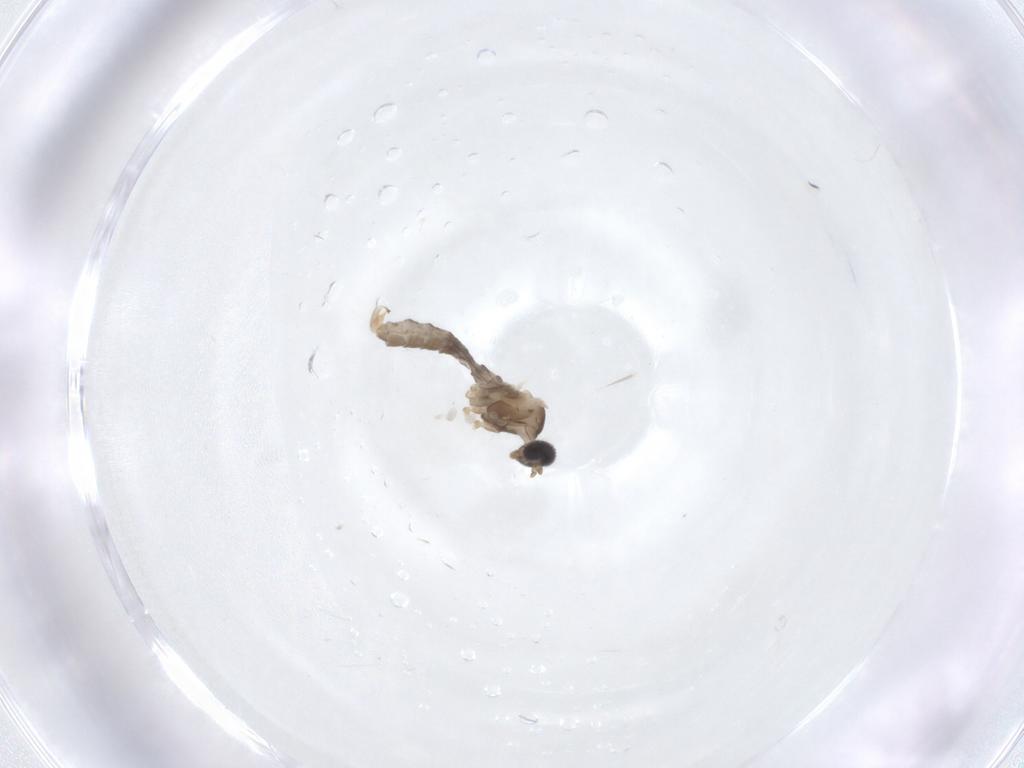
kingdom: Animalia
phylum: Arthropoda
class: Insecta
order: Diptera
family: Cecidomyiidae
